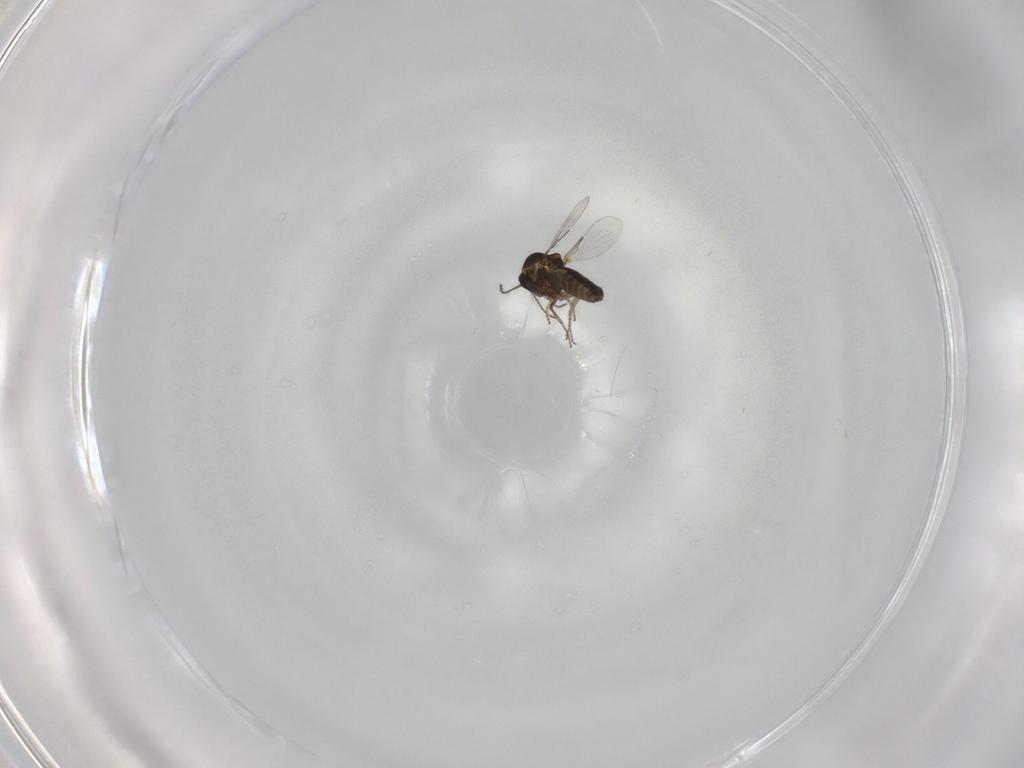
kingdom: Animalia
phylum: Arthropoda
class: Insecta
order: Diptera
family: Ceratopogonidae
